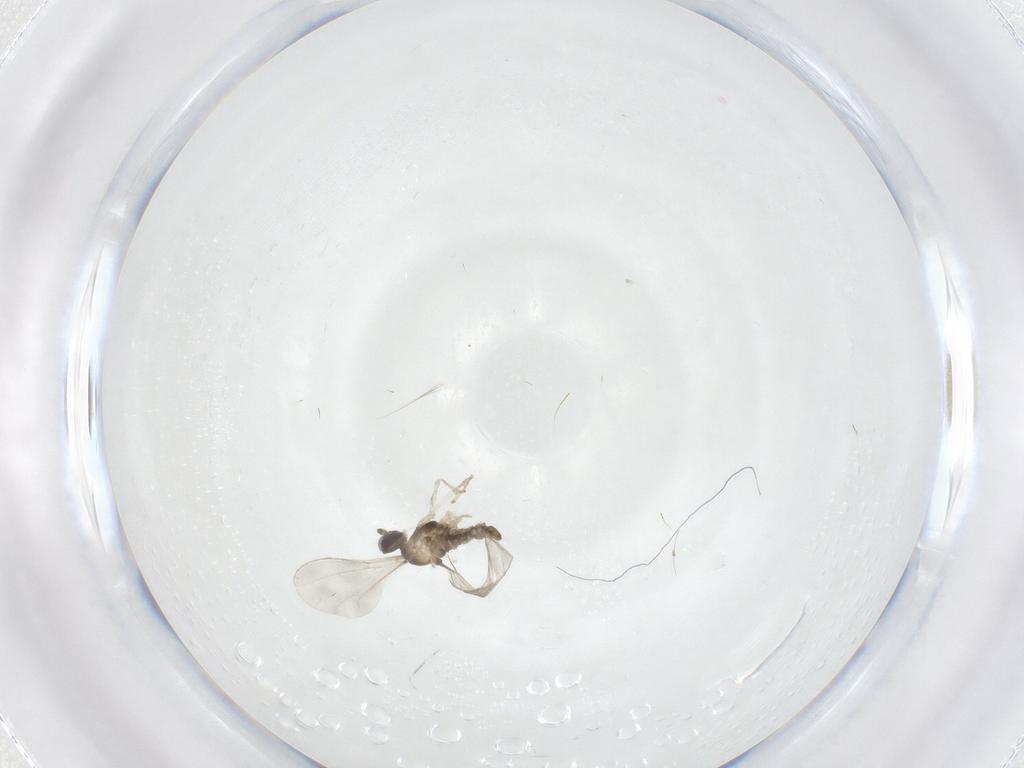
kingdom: Animalia
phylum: Arthropoda
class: Insecta
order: Diptera
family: Cecidomyiidae
